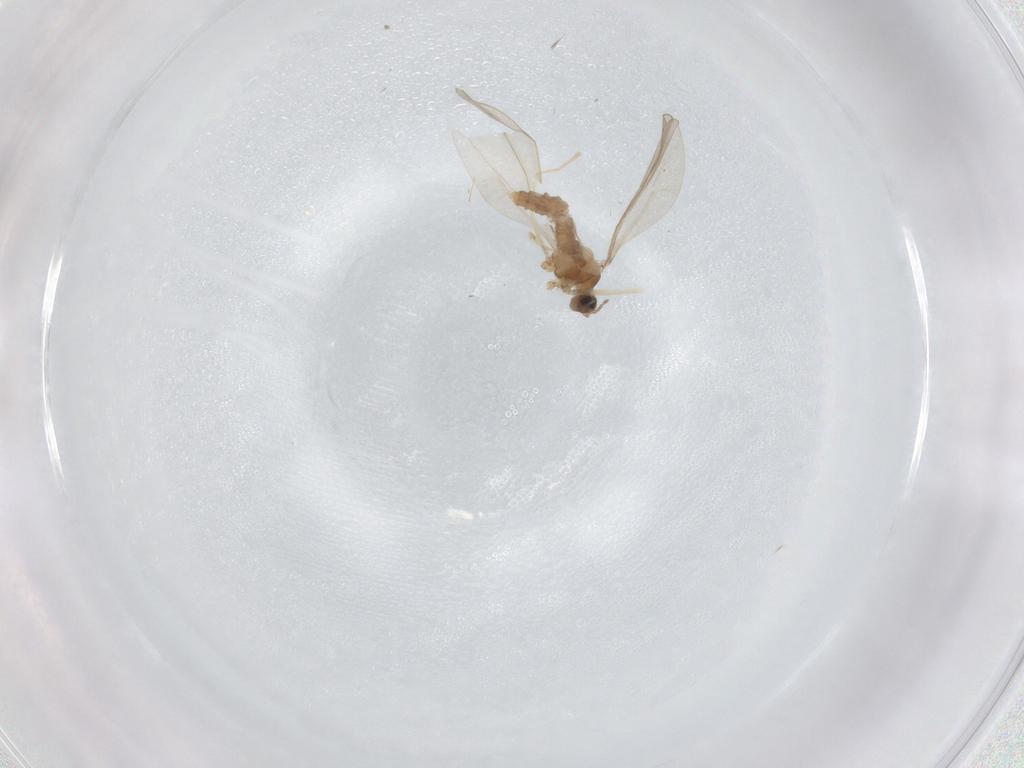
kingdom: Animalia
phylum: Arthropoda
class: Insecta
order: Diptera
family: Cecidomyiidae
